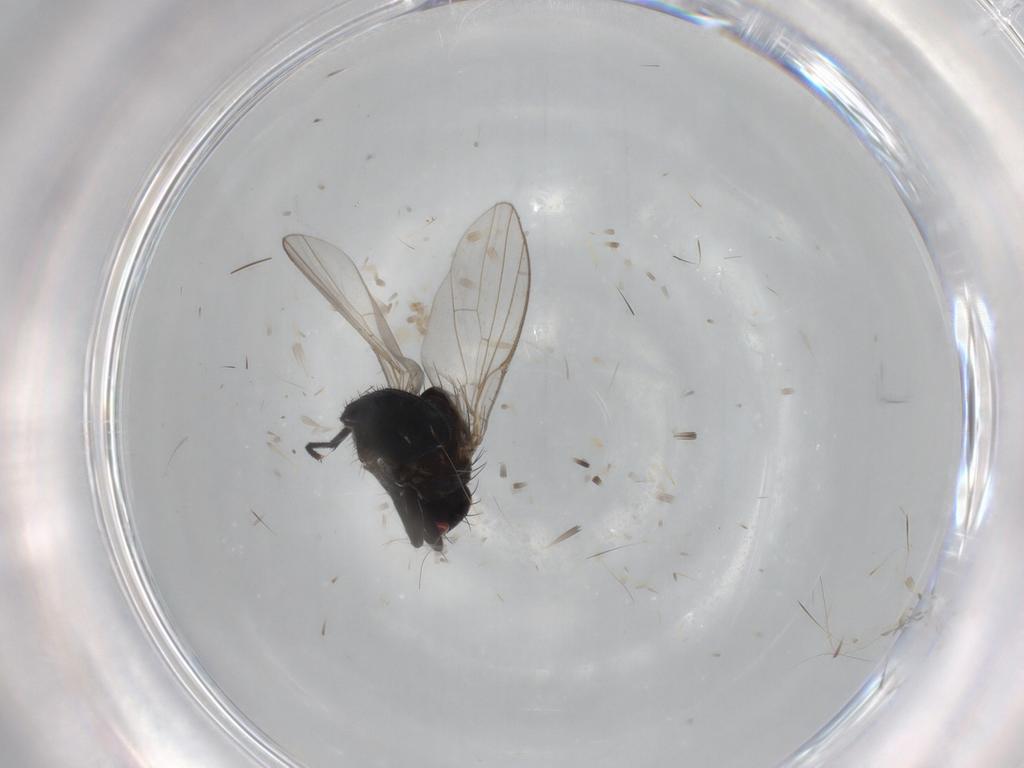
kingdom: Animalia
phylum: Arthropoda
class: Insecta
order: Diptera
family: Agromyzidae
